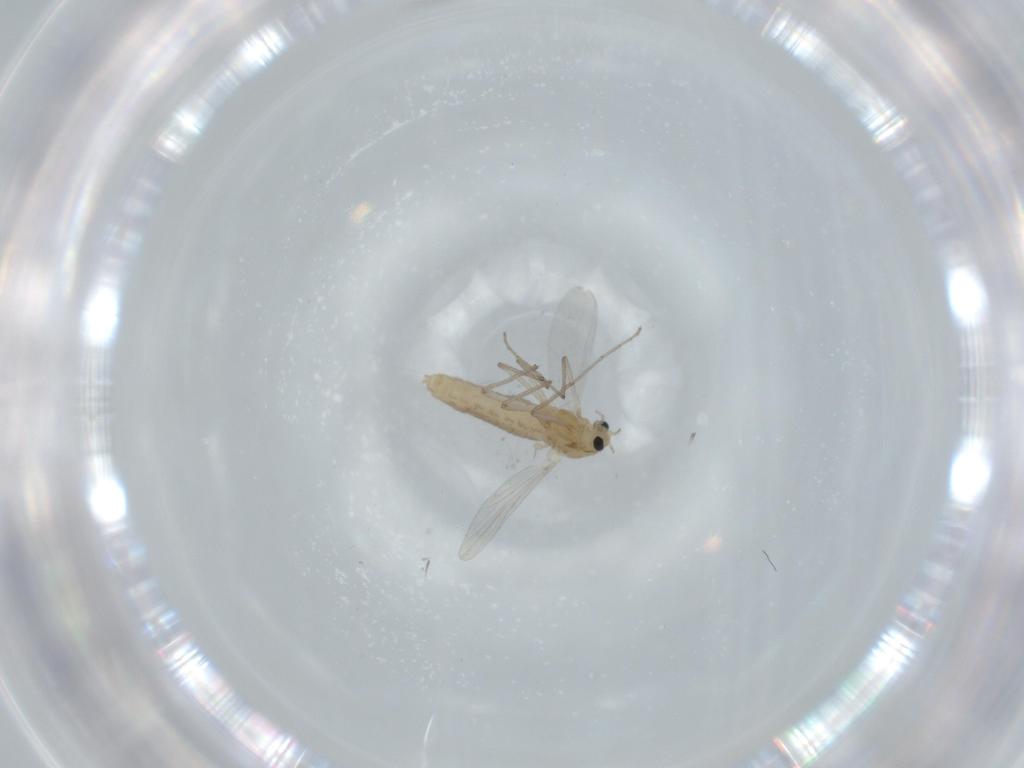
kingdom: Animalia
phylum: Arthropoda
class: Insecta
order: Diptera
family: Chironomidae
